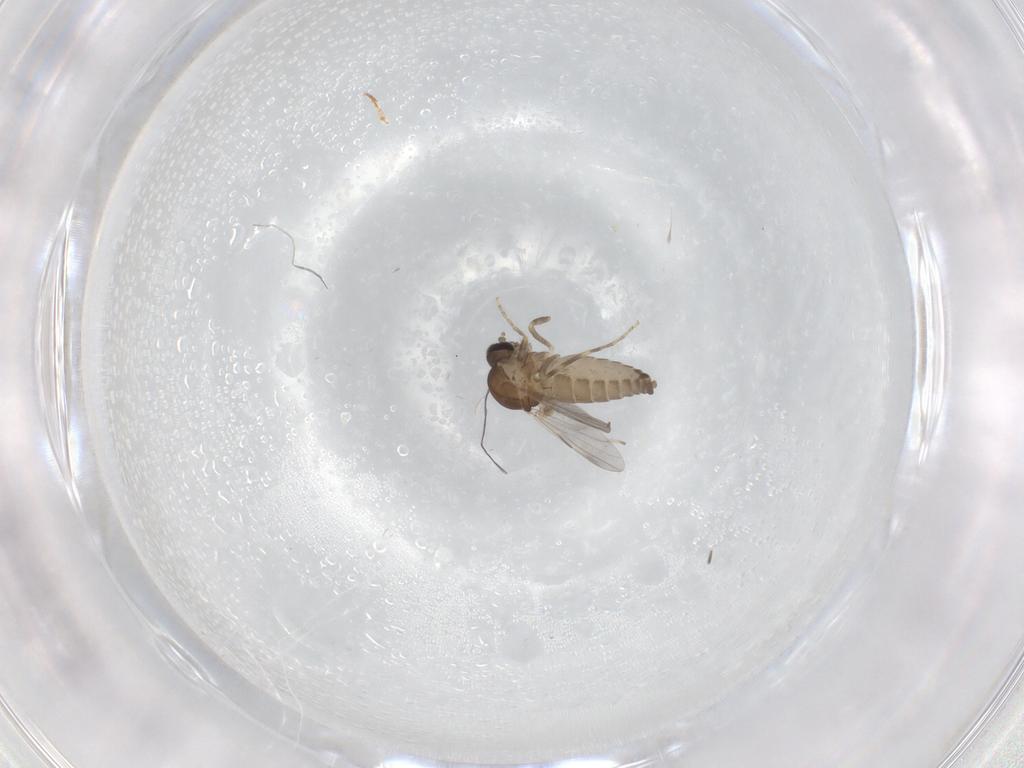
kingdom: Animalia
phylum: Arthropoda
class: Insecta
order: Diptera
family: Ceratopogonidae
